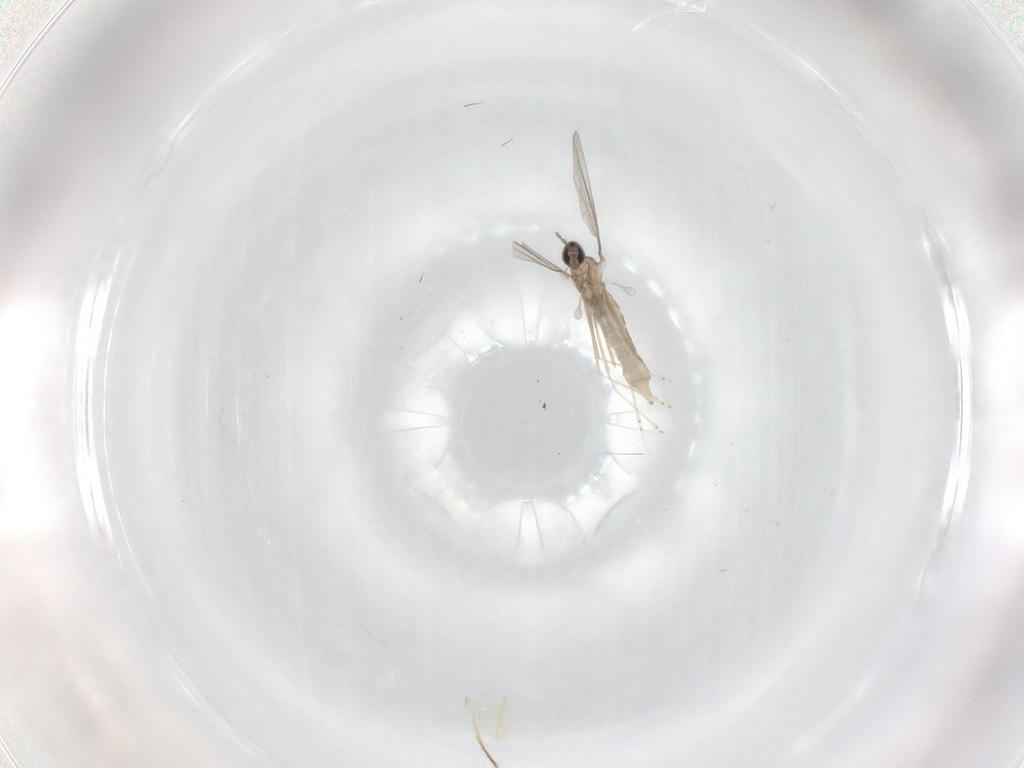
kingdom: Animalia
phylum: Arthropoda
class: Insecta
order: Diptera
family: Cecidomyiidae
